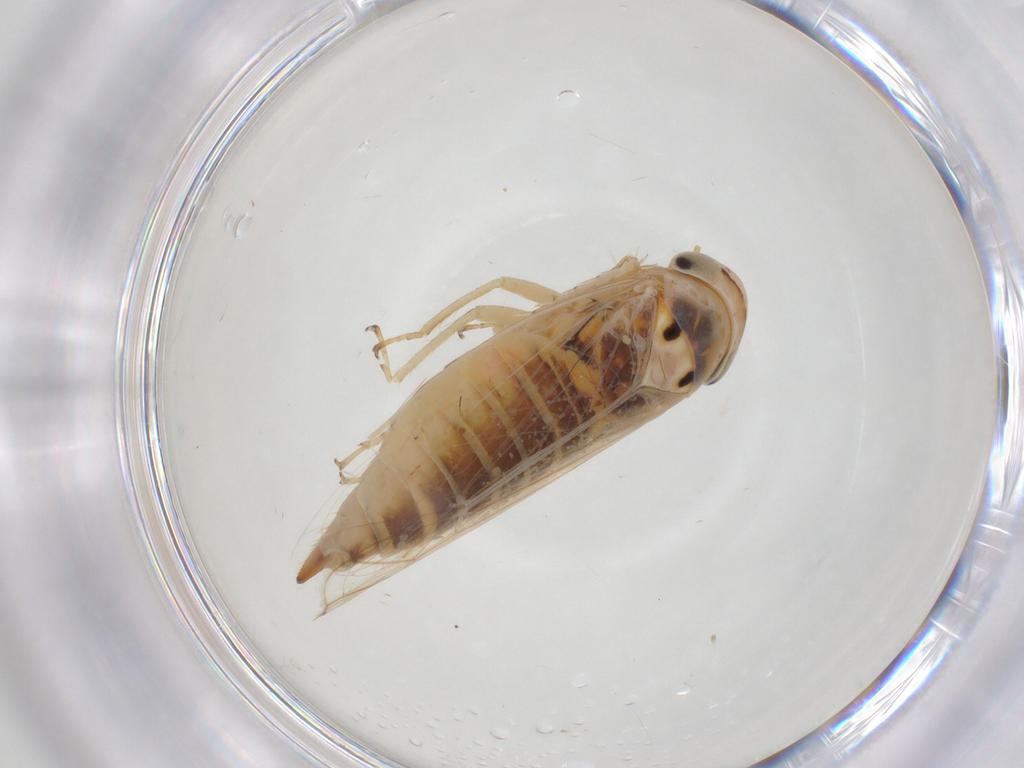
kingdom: Animalia
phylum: Arthropoda
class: Insecta
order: Hemiptera
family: Cicadellidae
